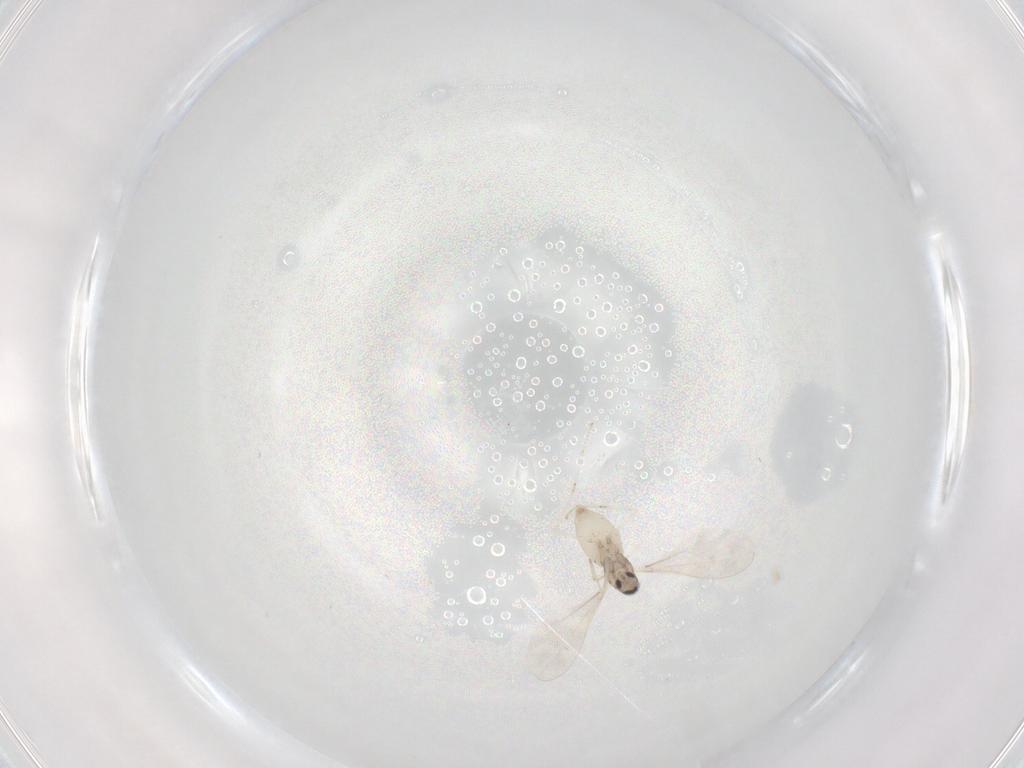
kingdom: Animalia
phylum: Arthropoda
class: Insecta
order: Diptera
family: Cecidomyiidae
